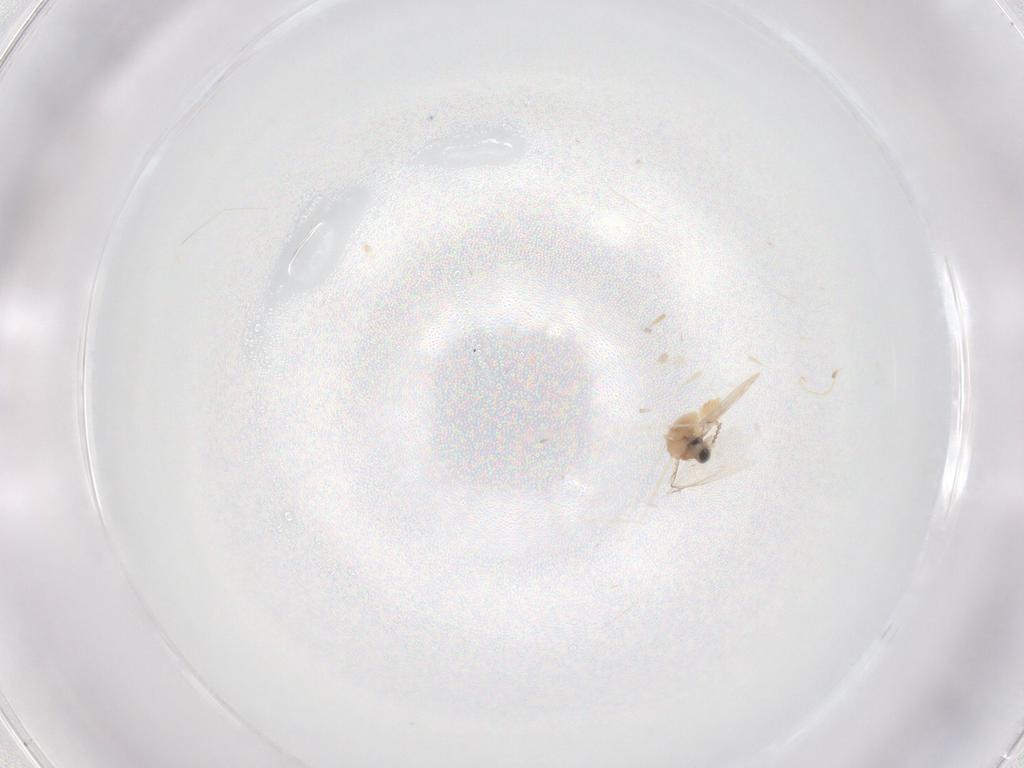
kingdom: Animalia
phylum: Arthropoda
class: Insecta
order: Diptera
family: Cecidomyiidae
